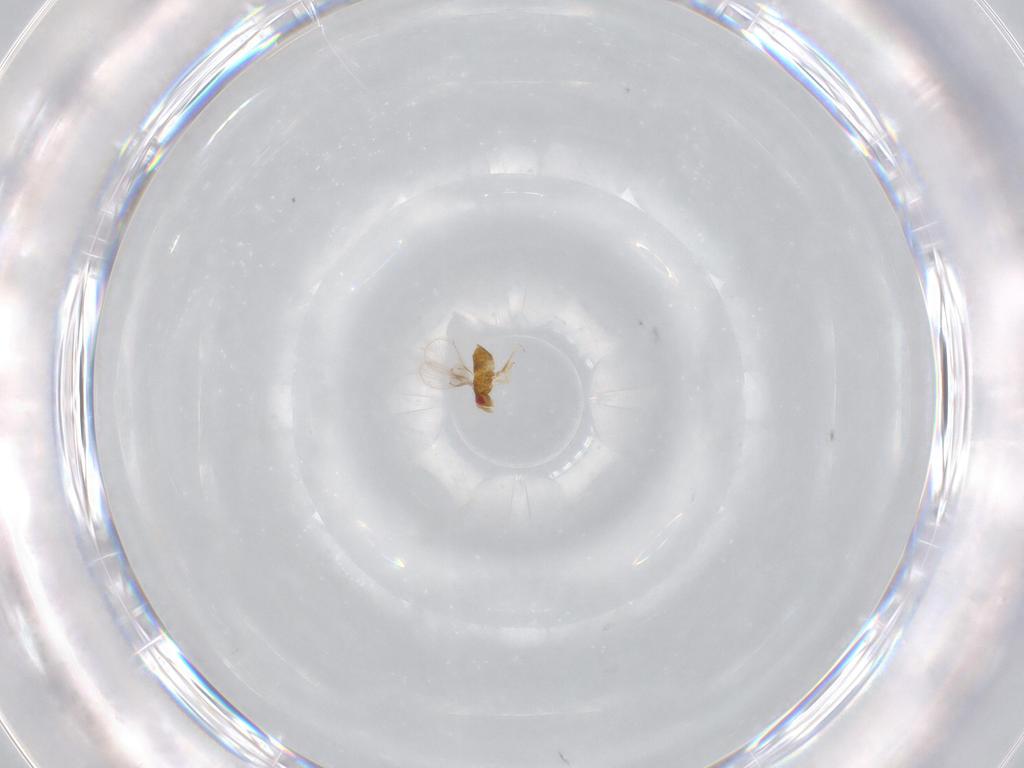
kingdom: Animalia
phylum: Arthropoda
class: Insecta
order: Hymenoptera
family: Trichogrammatidae
